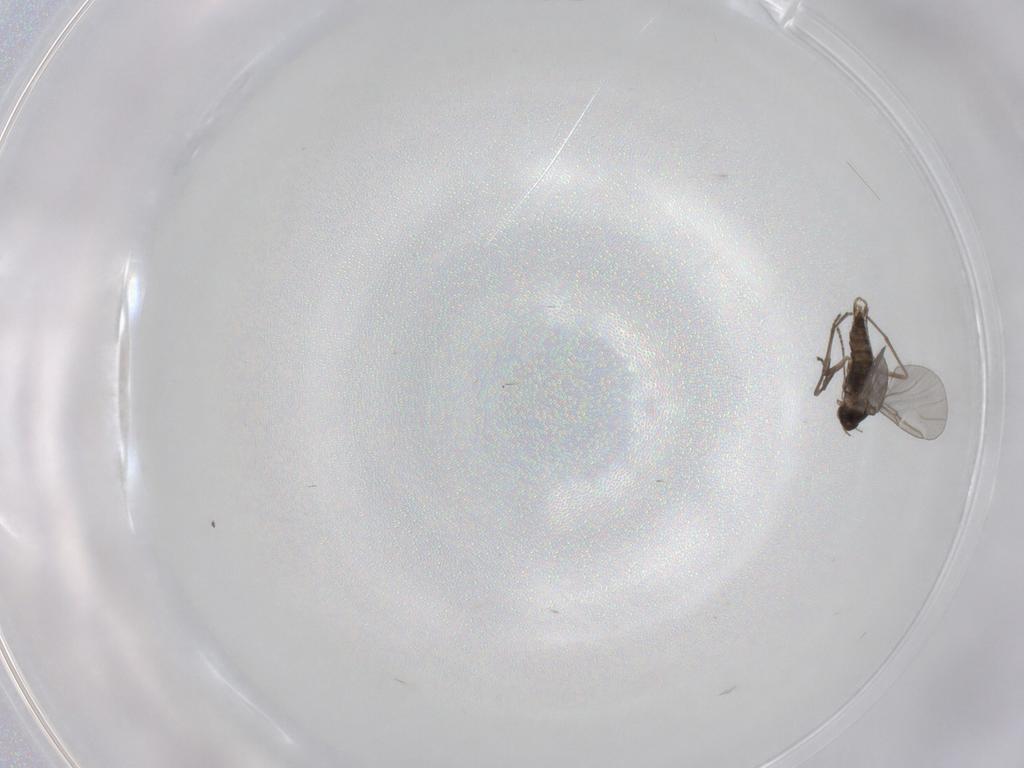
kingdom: Animalia
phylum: Arthropoda
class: Insecta
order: Diptera
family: Cecidomyiidae
